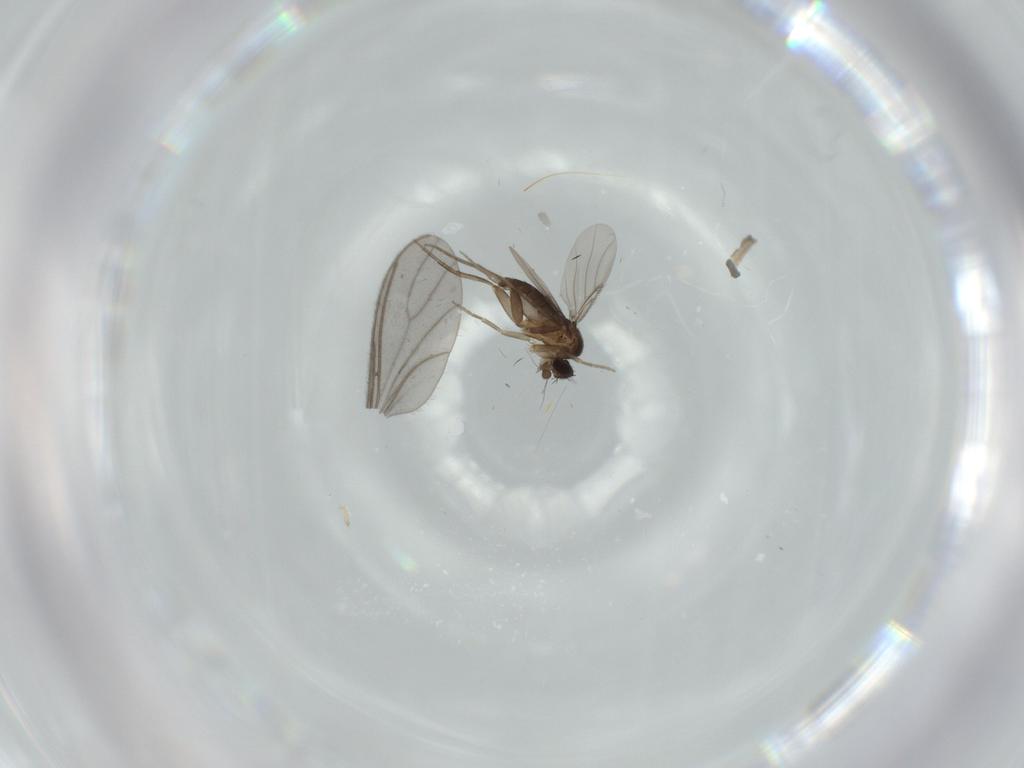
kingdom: Animalia
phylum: Arthropoda
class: Insecta
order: Diptera
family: Phoridae
